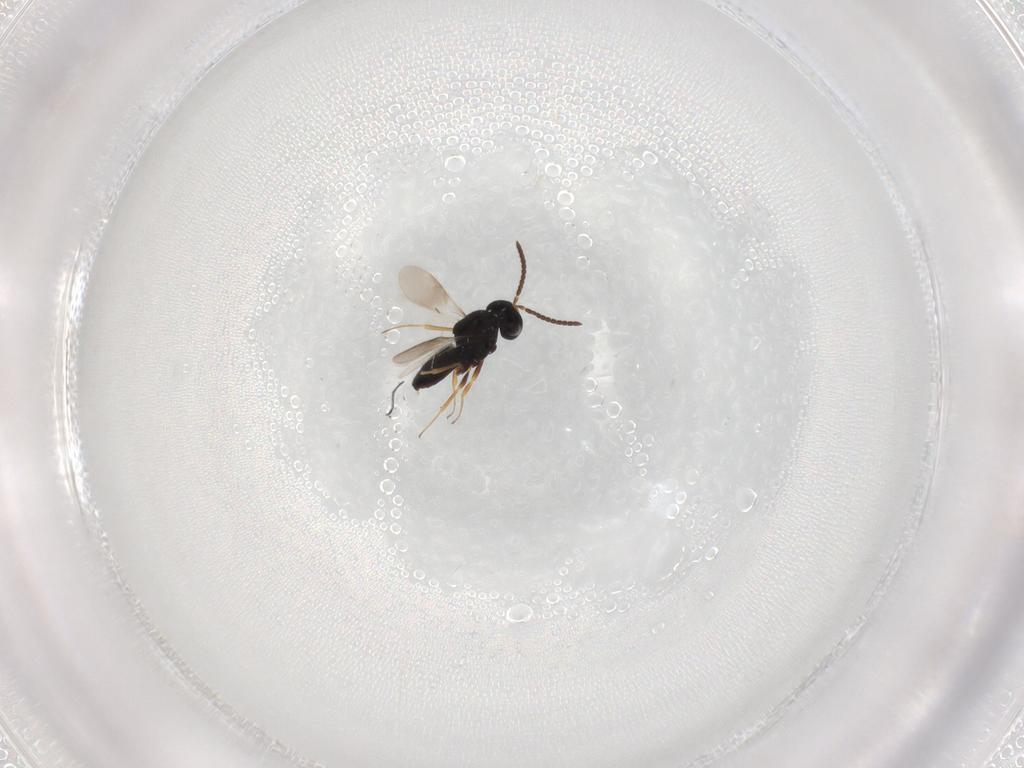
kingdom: Animalia
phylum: Arthropoda
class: Insecta
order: Hymenoptera
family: Scelionidae
